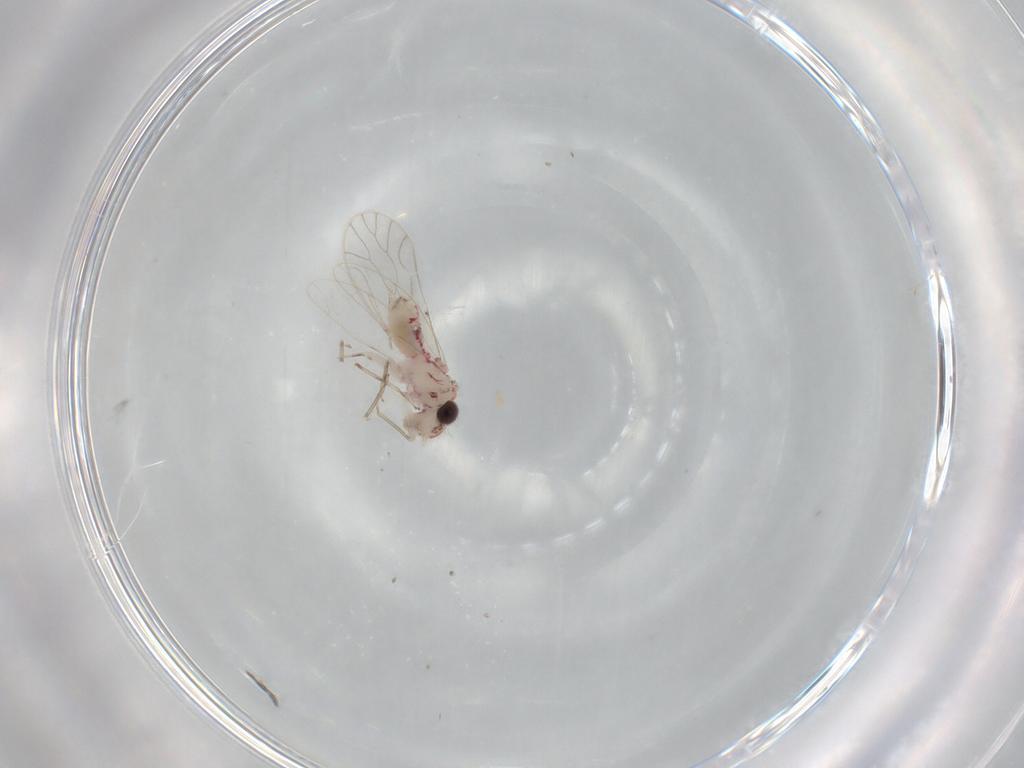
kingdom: Animalia
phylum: Arthropoda
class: Insecta
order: Psocodea
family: Caeciliusidae
